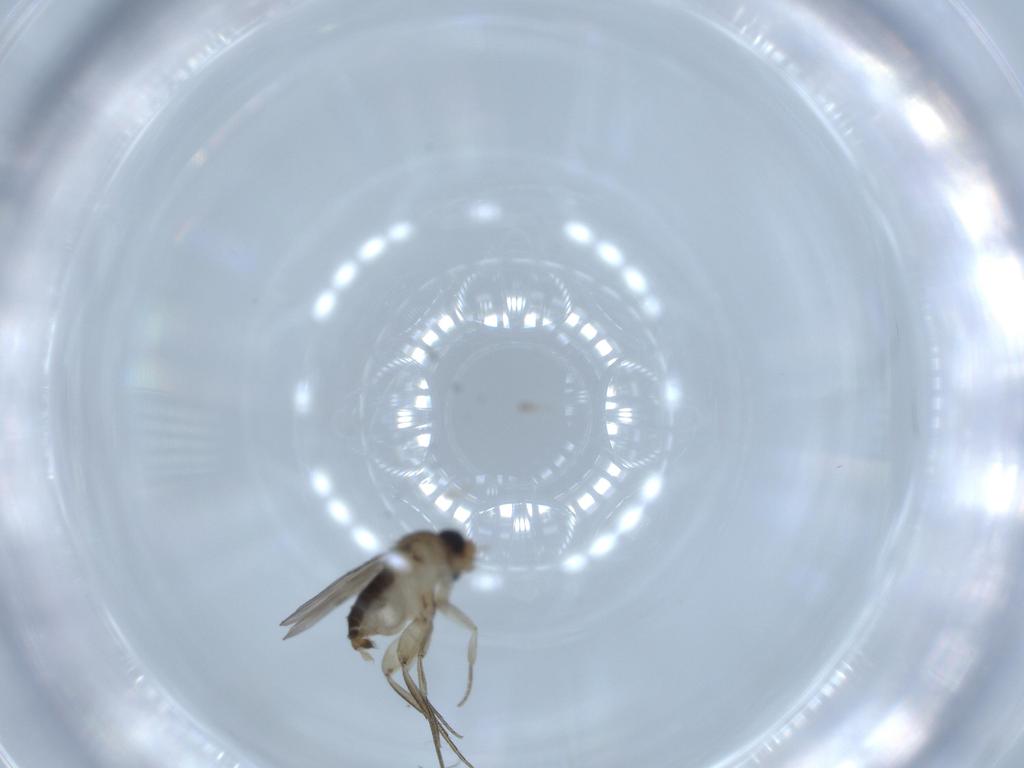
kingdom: Animalia
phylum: Arthropoda
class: Insecta
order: Diptera
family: Phoridae
